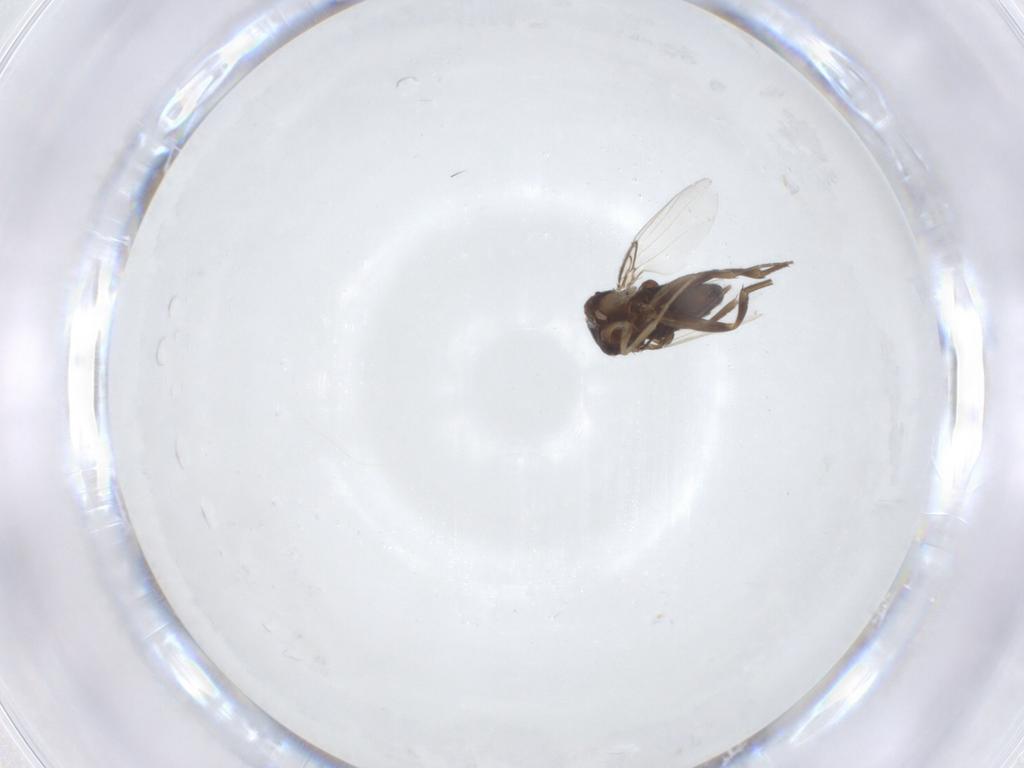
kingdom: Animalia
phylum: Arthropoda
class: Insecta
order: Diptera
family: Phoridae
